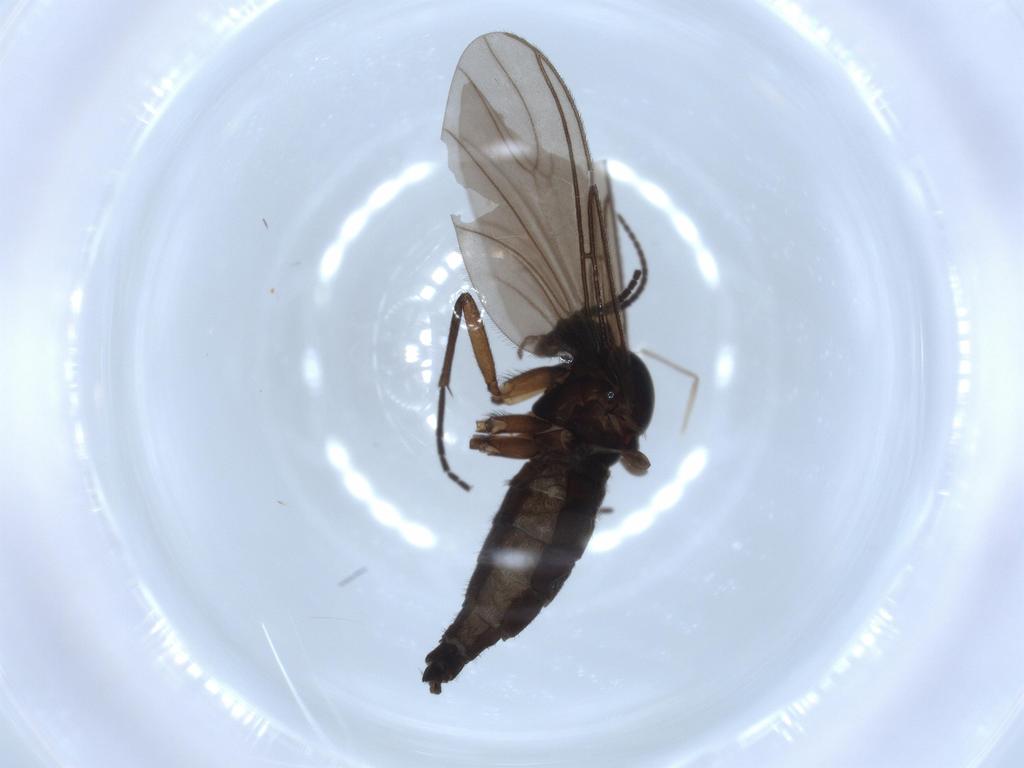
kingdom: Animalia
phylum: Arthropoda
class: Insecta
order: Diptera
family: Sciaridae
